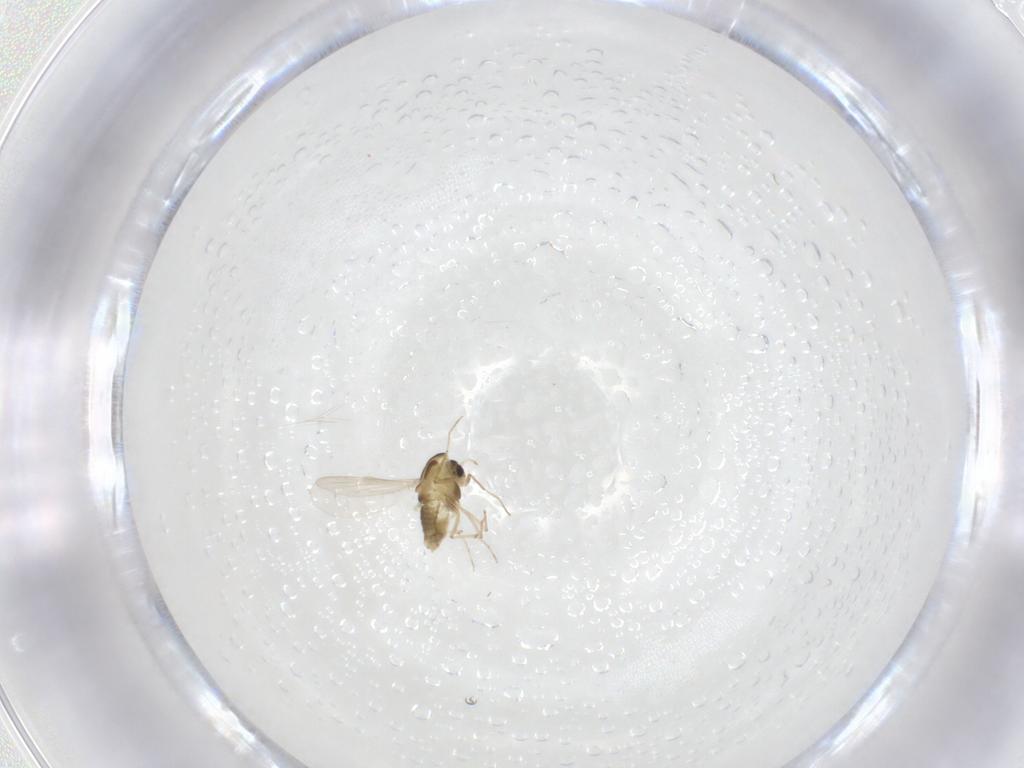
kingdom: Animalia
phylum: Arthropoda
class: Insecta
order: Diptera
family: Chironomidae
